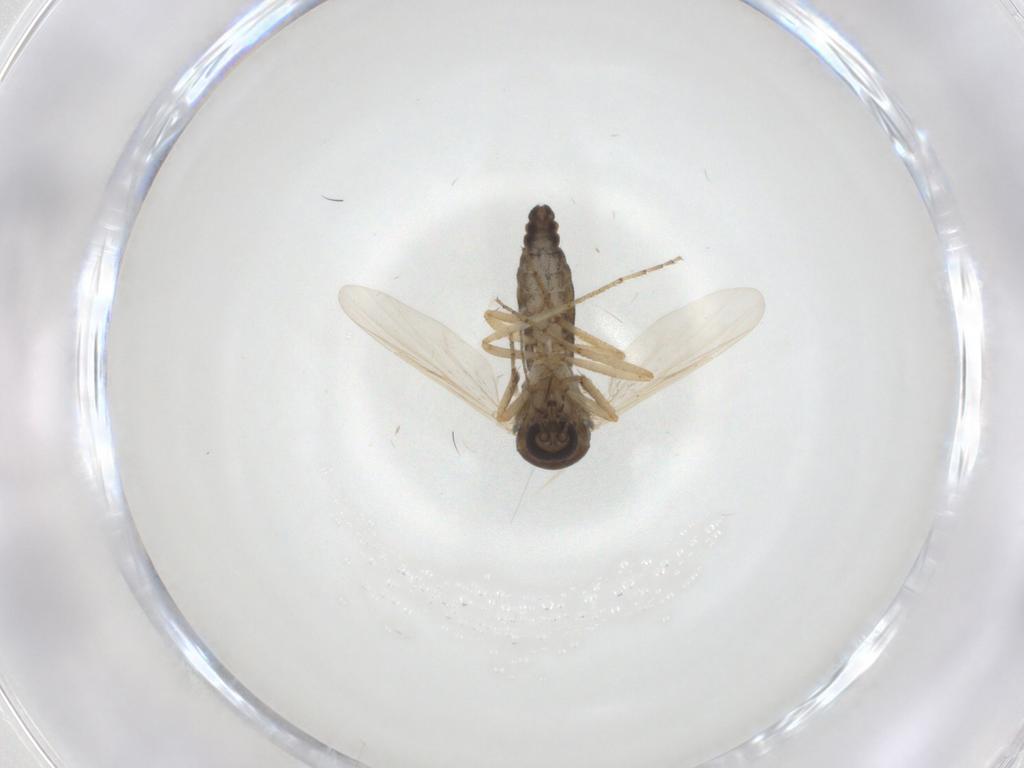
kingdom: Animalia
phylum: Arthropoda
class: Insecta
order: Diptera
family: Ceratopogonidae
